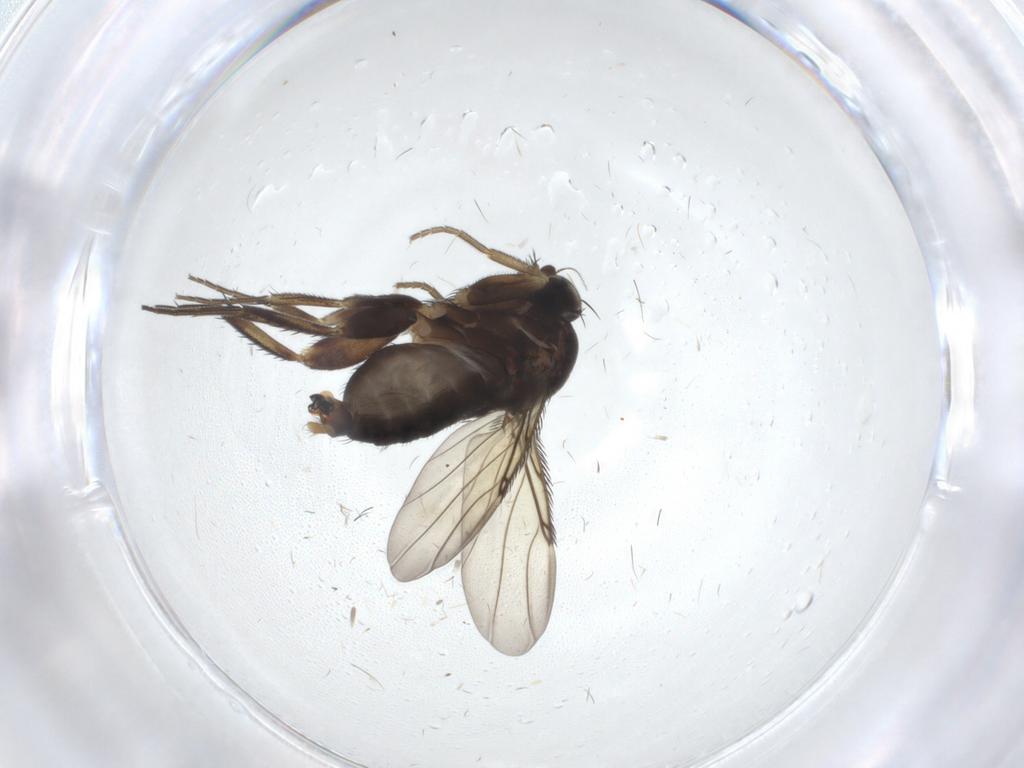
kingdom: Animalia
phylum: Arthropoda
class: Insecta
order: Diptera
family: Phoridae
